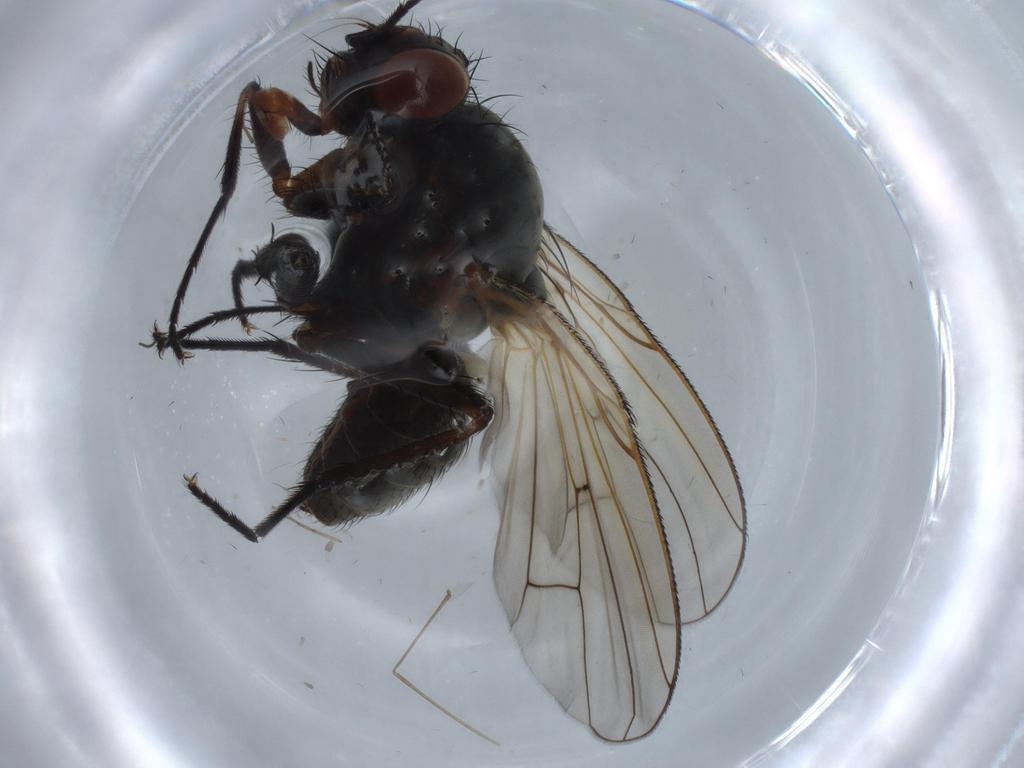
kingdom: Animalia
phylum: Arthropoda
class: Insecta
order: Diptera
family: Anthomyiidae
